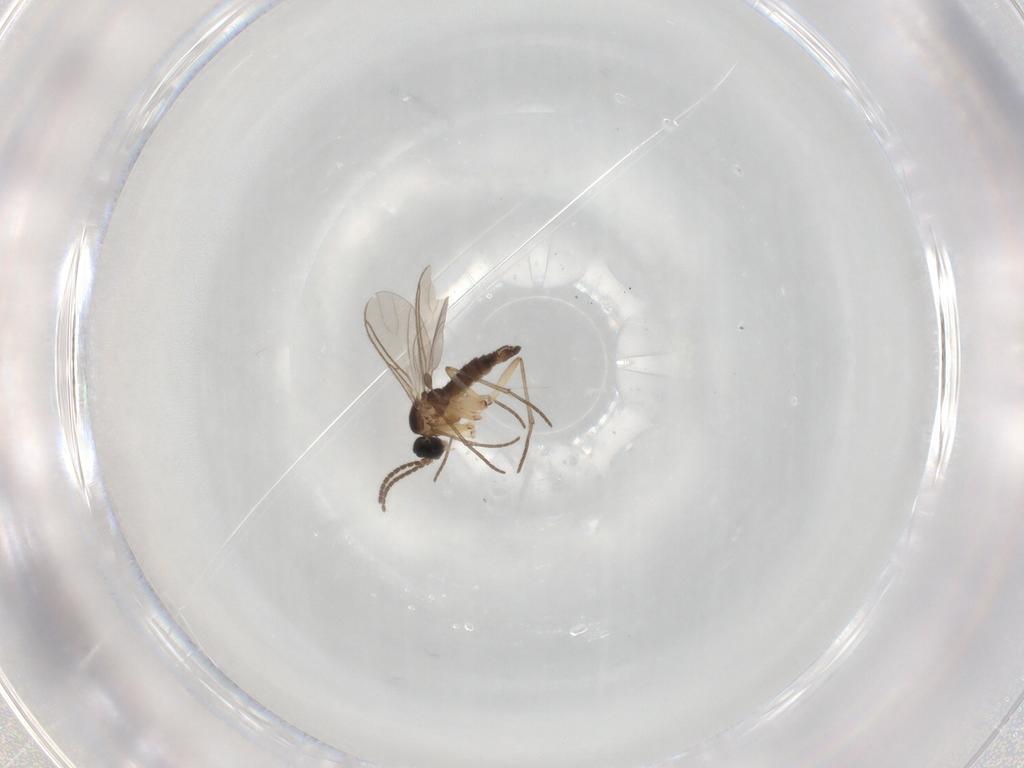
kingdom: Animalia
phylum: Arthropoda
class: Insecta
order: Diptera
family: Sciaridae
